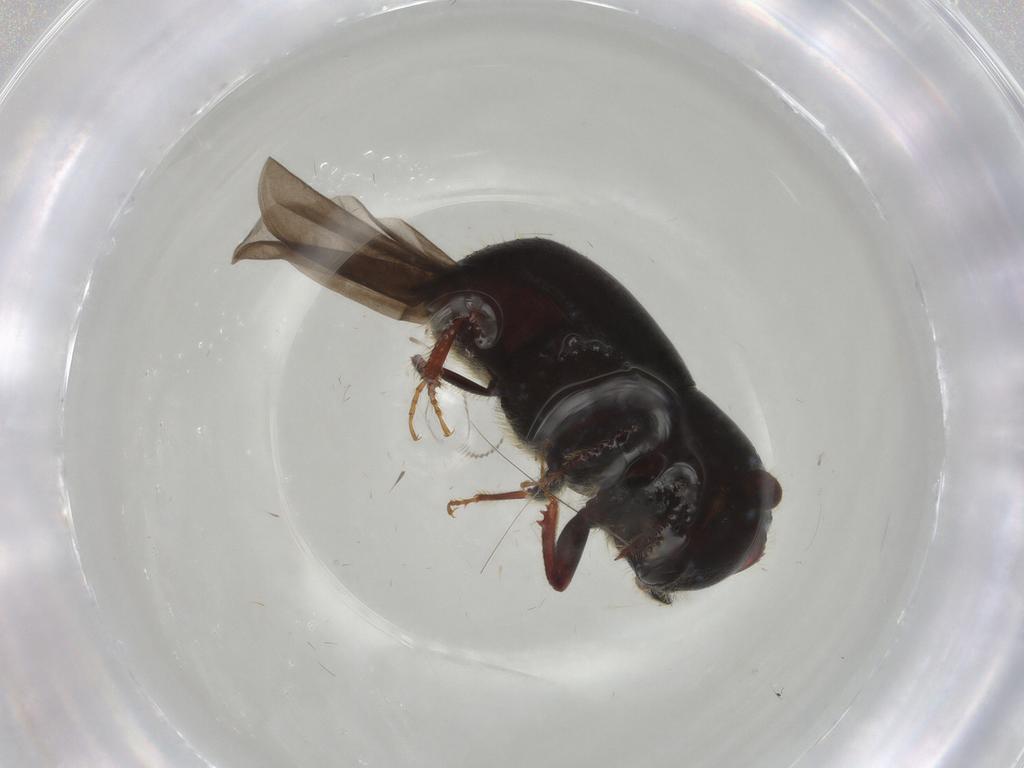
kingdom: Animalia
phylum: Arthropoda
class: Insecta
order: Coleoptera
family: Curculionidae
